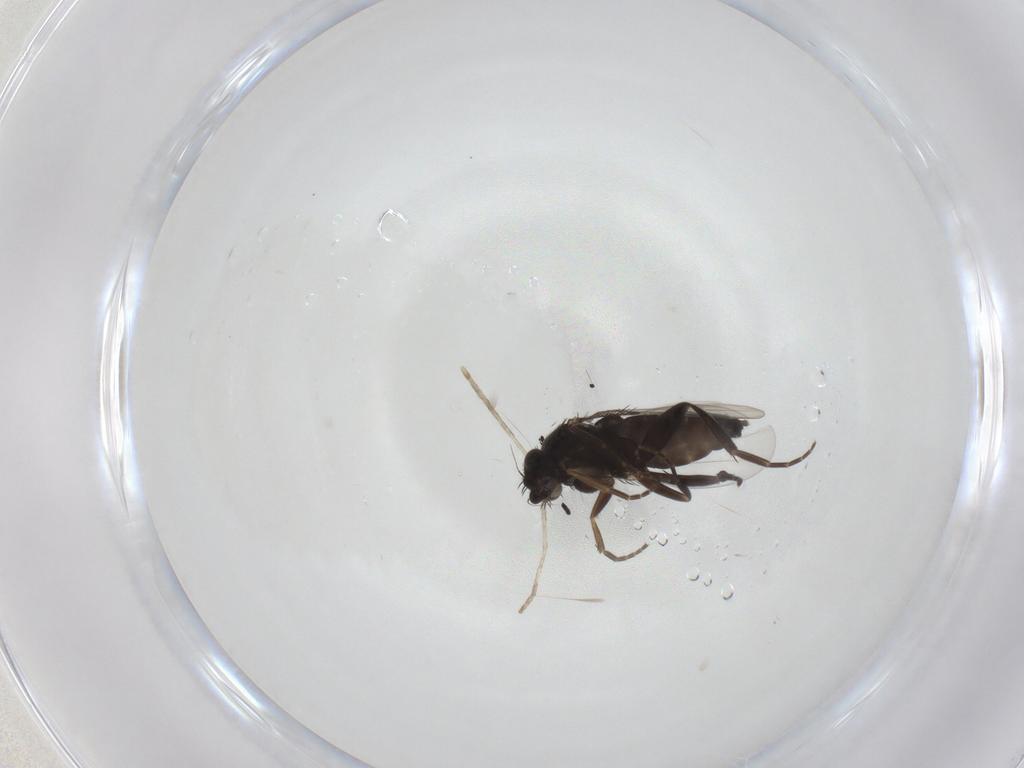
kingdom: Animalia
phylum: Arthropoda
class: Insecta
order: Diptera
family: Phoridae
